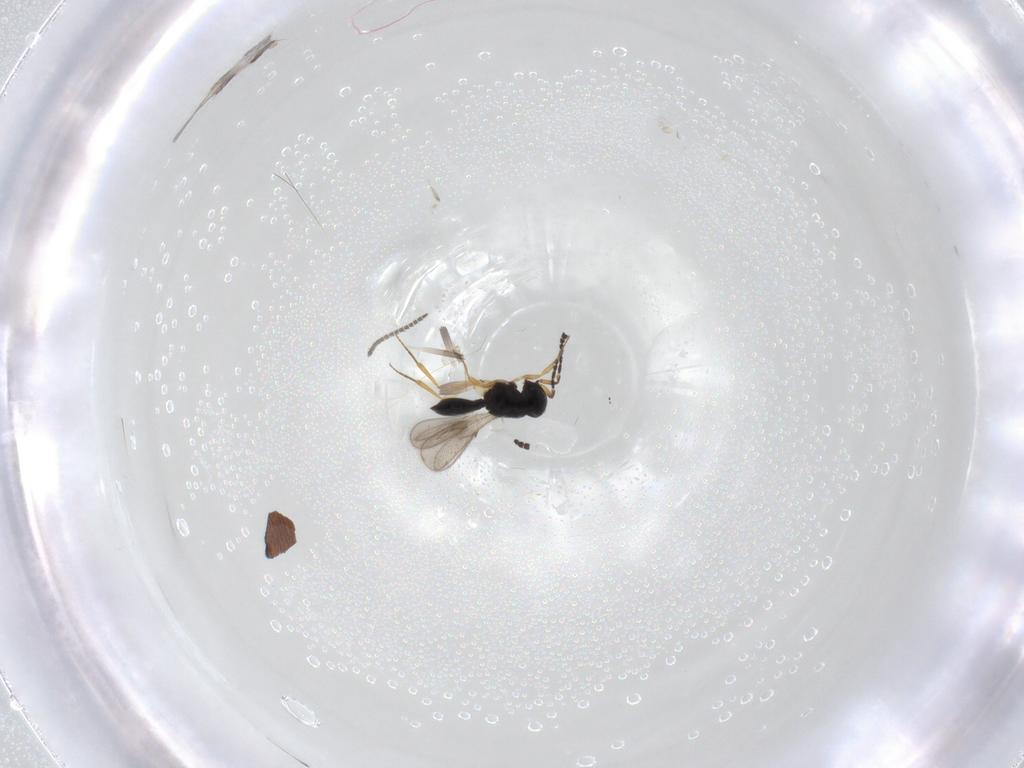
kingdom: Animalia
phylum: Arthropoda
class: Insecta
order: Hymenoptera
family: Scelionidae
